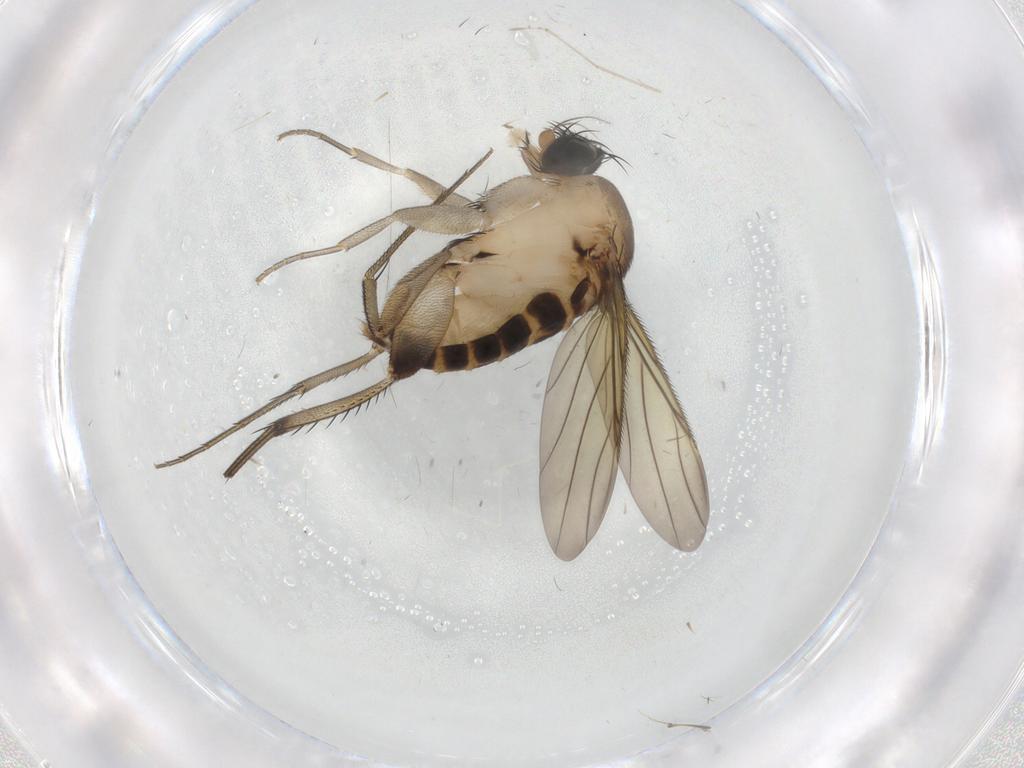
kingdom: Animalia
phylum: Arthropoda
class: Insecta
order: Diptera
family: Phoridae
